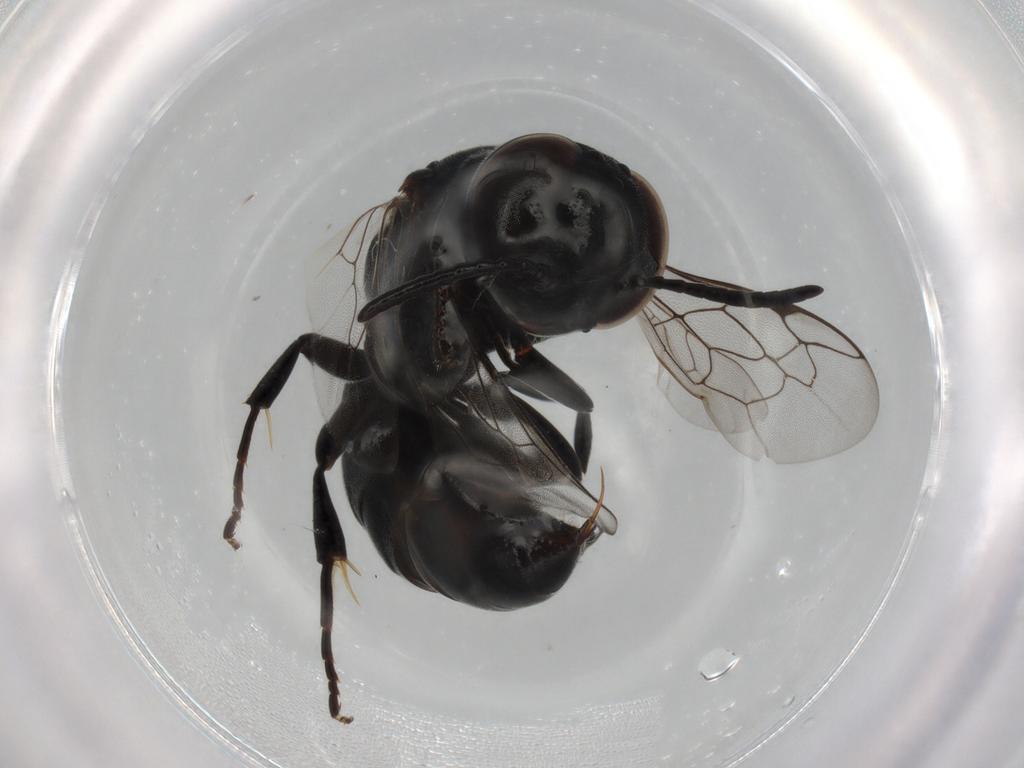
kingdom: Animalia
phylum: Arthropoda
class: Insecta
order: Hymenoptera
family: Crabronidae
